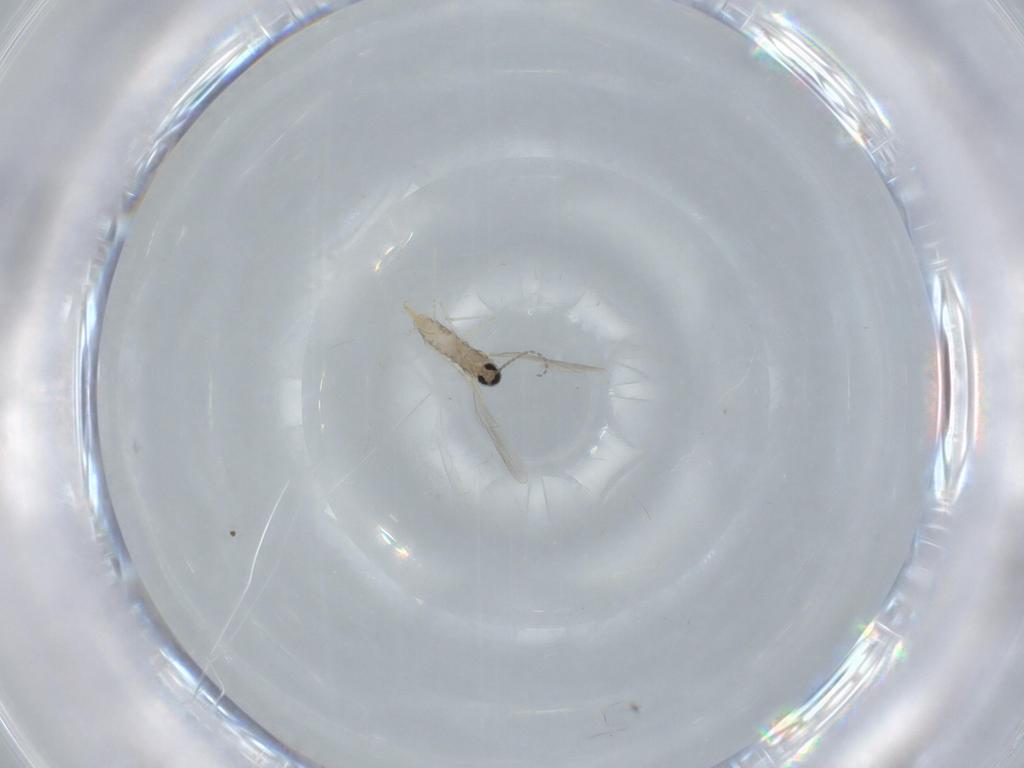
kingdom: Animalia
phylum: Arthropoda
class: Insecta
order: Diptera
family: Cecidomyiidae
